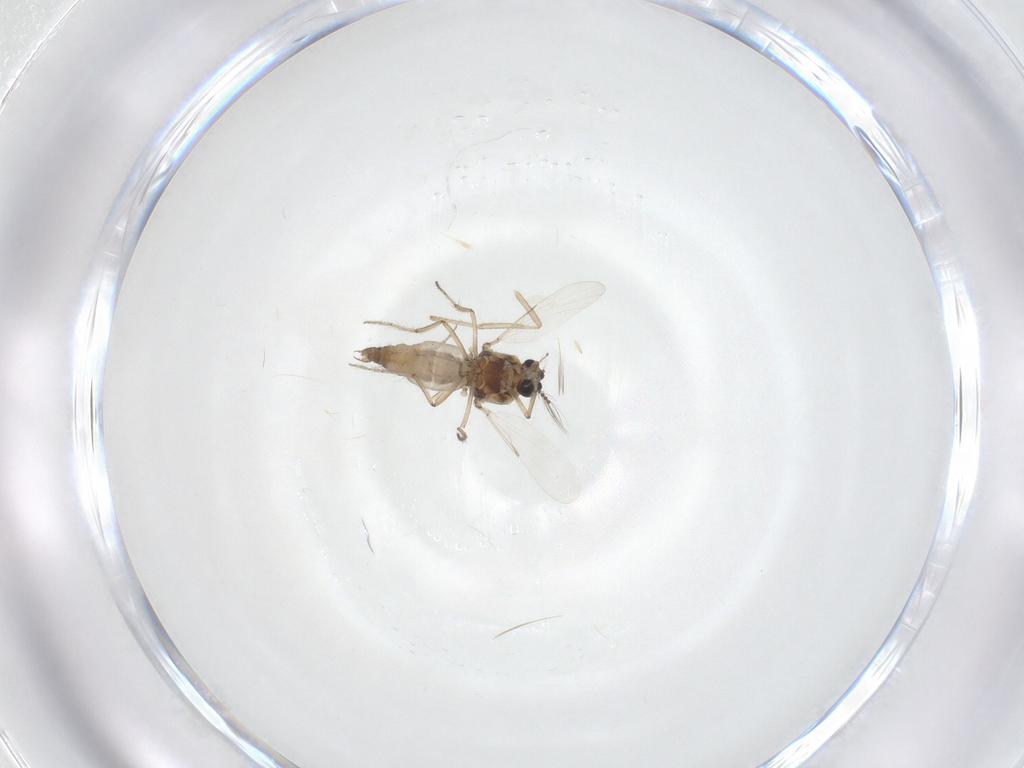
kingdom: Animalia
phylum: Arthropoda
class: Insecta
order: Diptera
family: Ceratopogonidae
